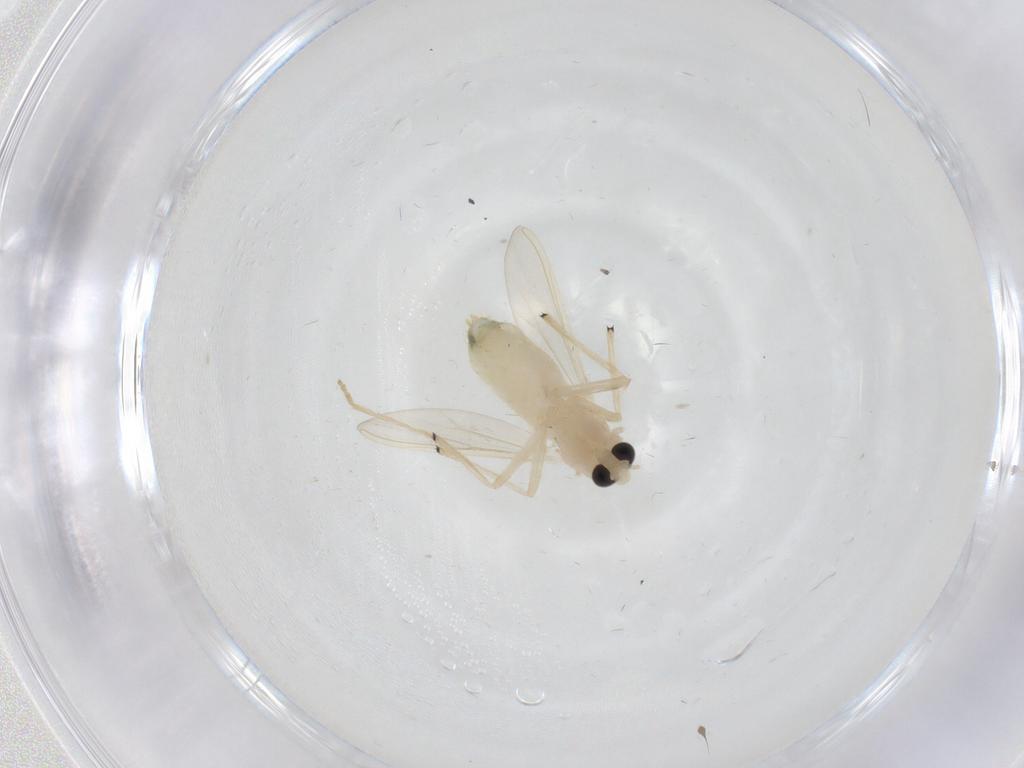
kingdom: Animalia
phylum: Arthropoda
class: Insecta
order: Diptera
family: Chironomidae
